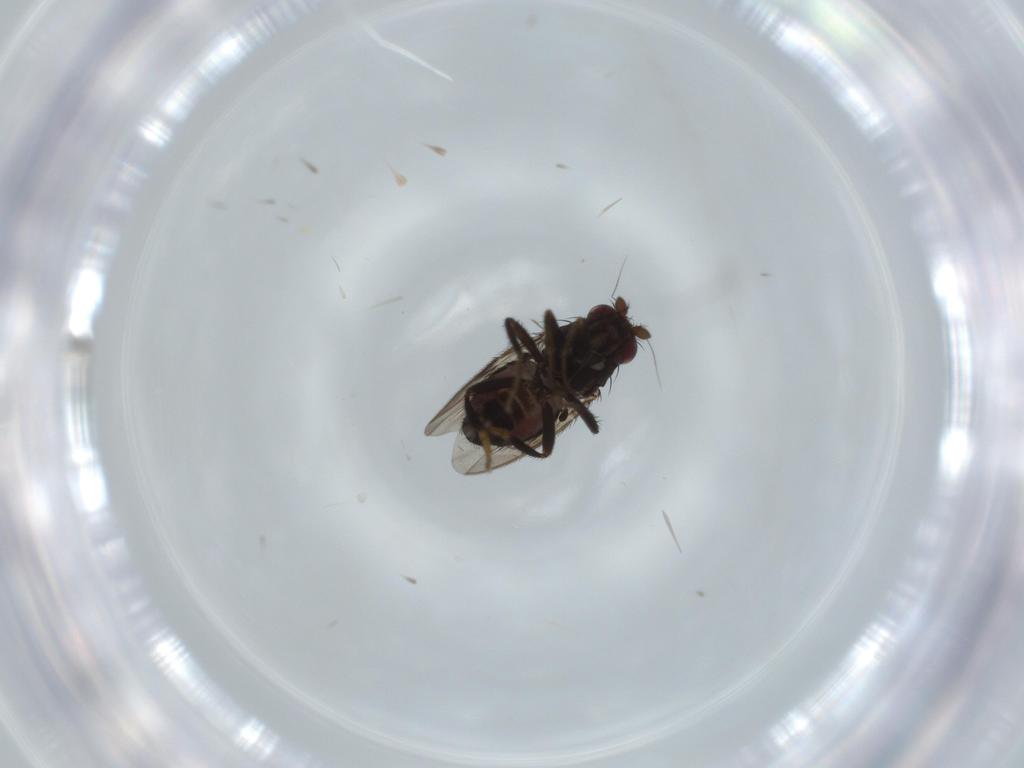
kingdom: Animalia
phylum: Arthropoda
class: Insecta
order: Diptera
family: Sphaeroceridae
